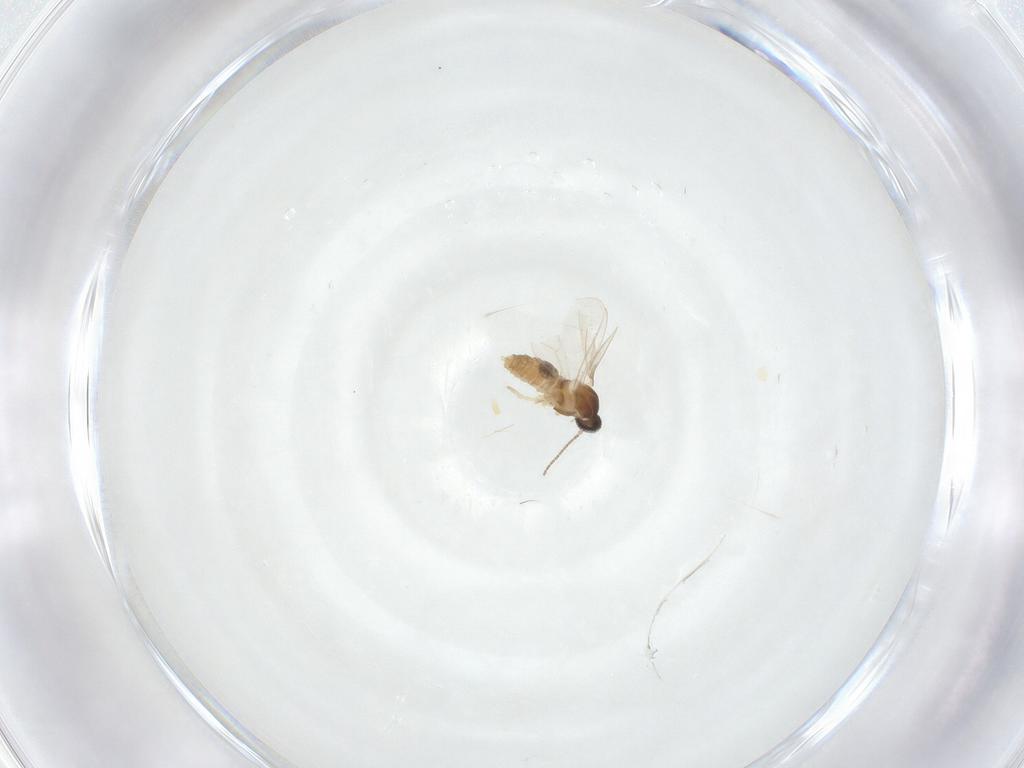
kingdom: Animalia
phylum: Arthropoda
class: Insecta
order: Diptera
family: Cecidomyiidae
